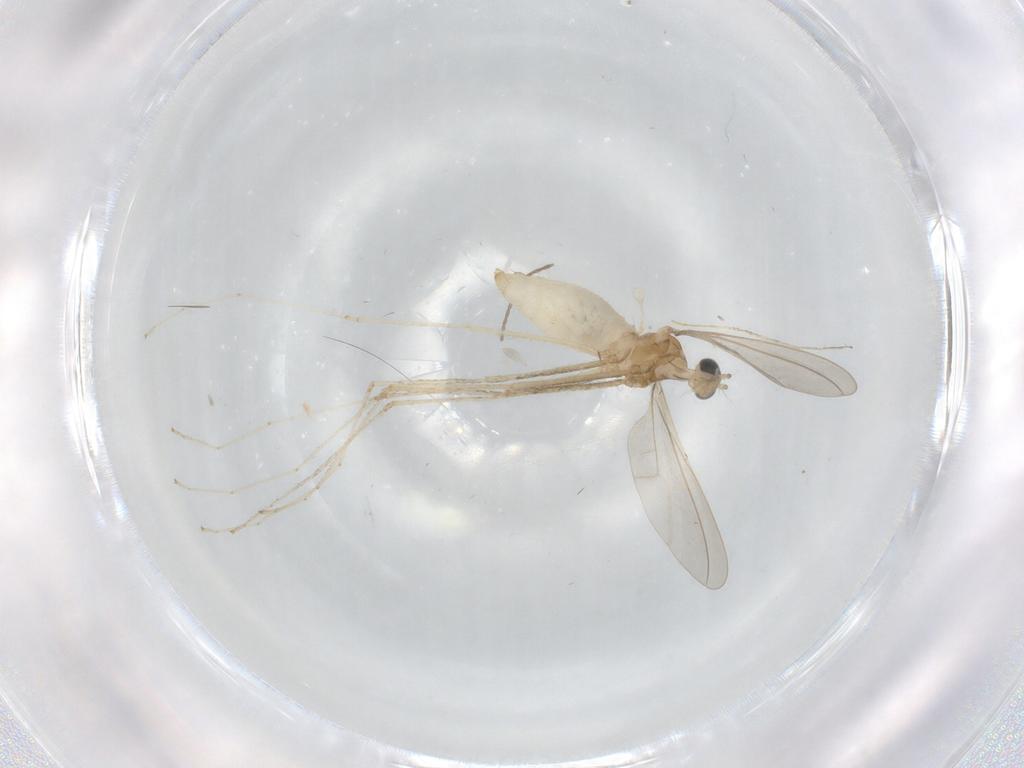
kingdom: Animalia
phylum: Arthropoda
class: Insecta
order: Diptera
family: Cecidomyiidae
